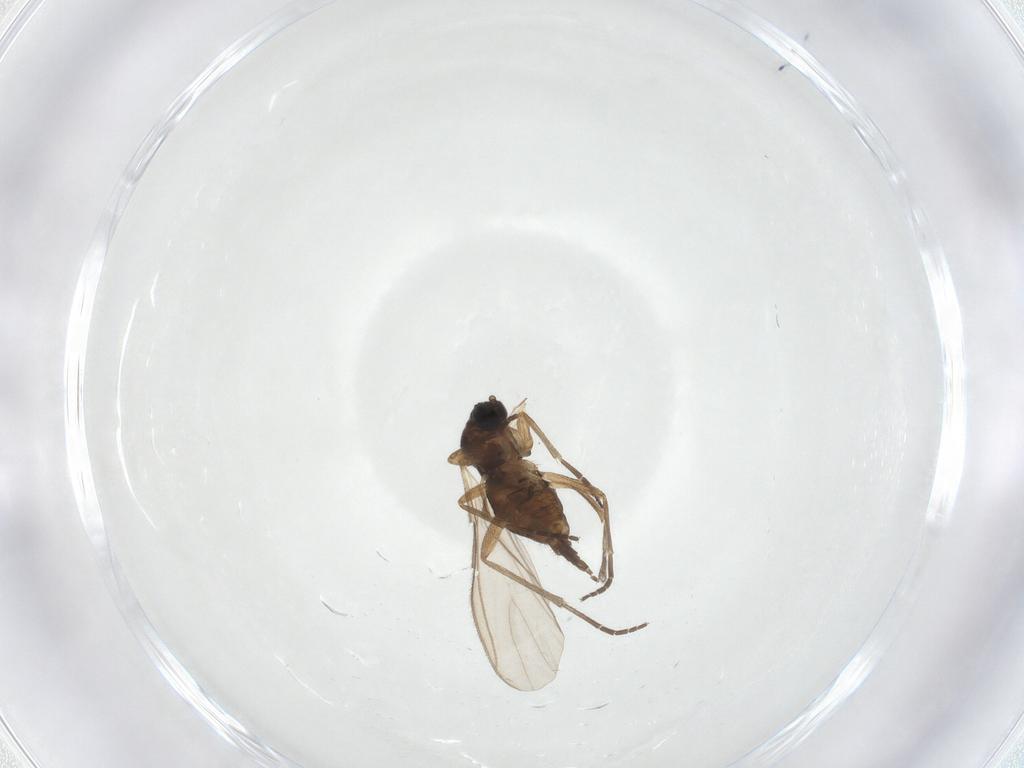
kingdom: Animalia
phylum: Arthropoda
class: Insecta
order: Diptera
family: Sciaridae
